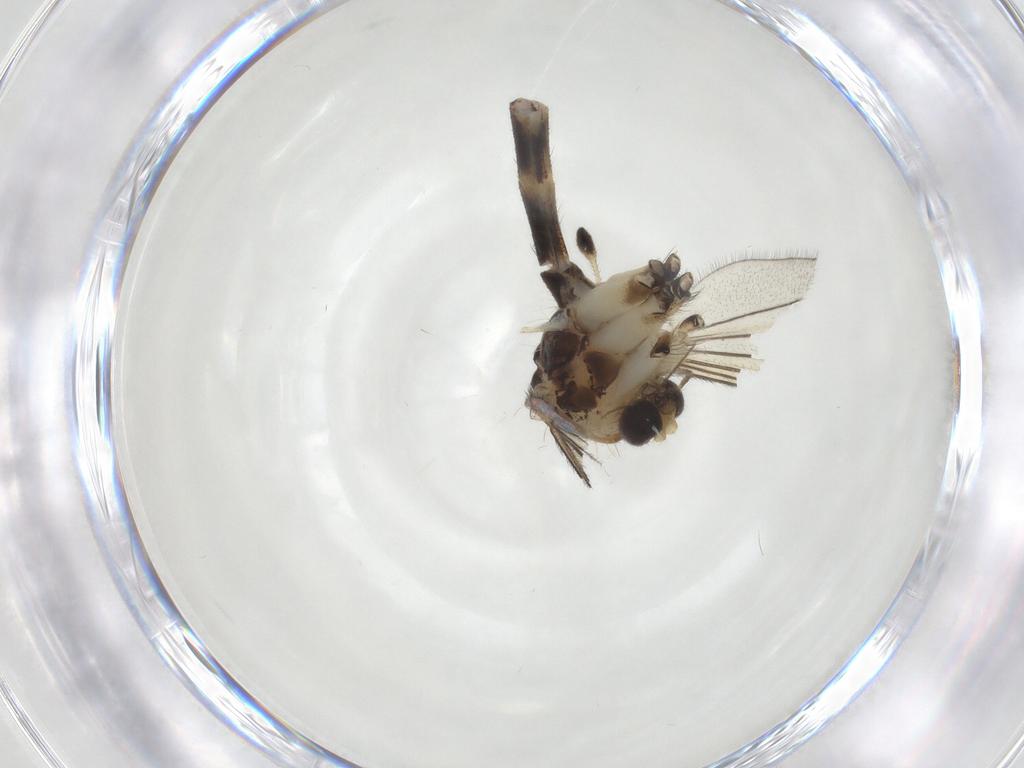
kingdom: Animalia
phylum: Arthropoda
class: Insecta
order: Diptera
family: Mycetophilidae
